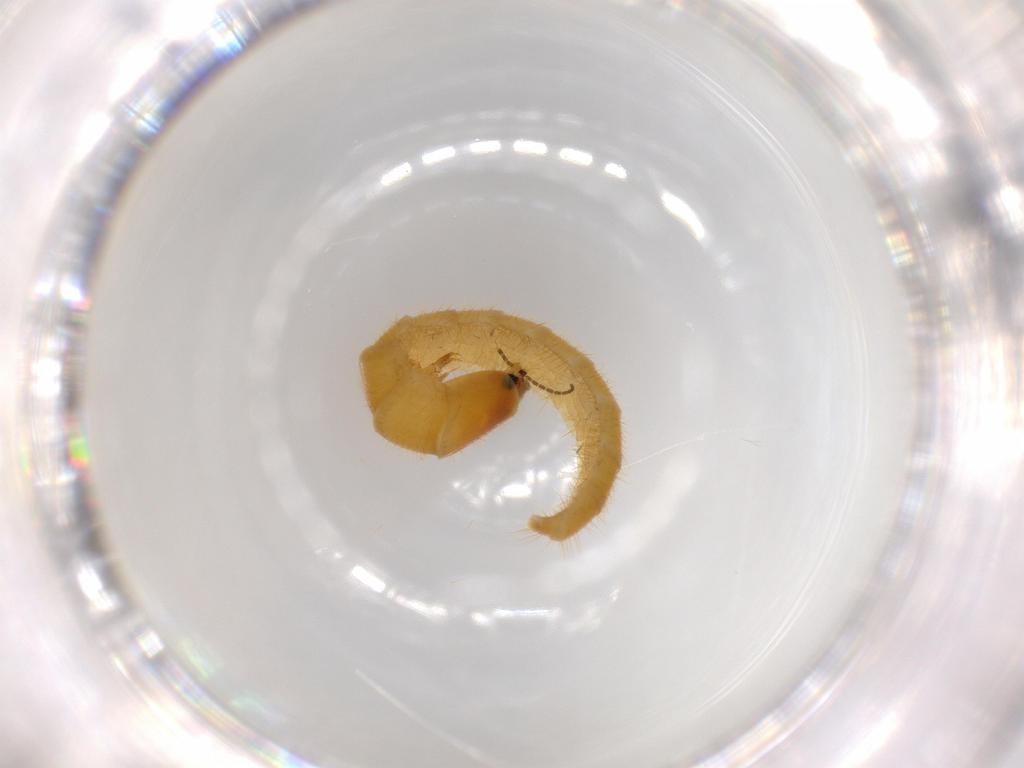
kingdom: Animalia
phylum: Arthropoda
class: Insecta
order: Coleoptera
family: Phengodidae
